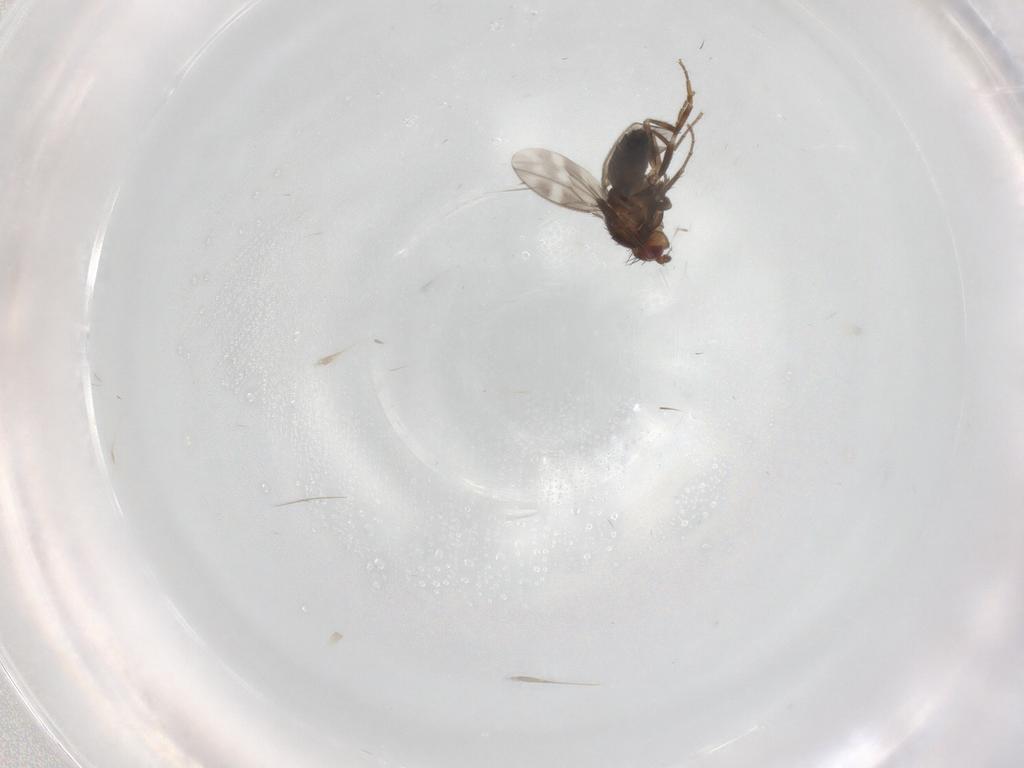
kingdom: Animalia
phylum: Arthropoda
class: Insecta
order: Diptera
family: Sphaeroceridae
